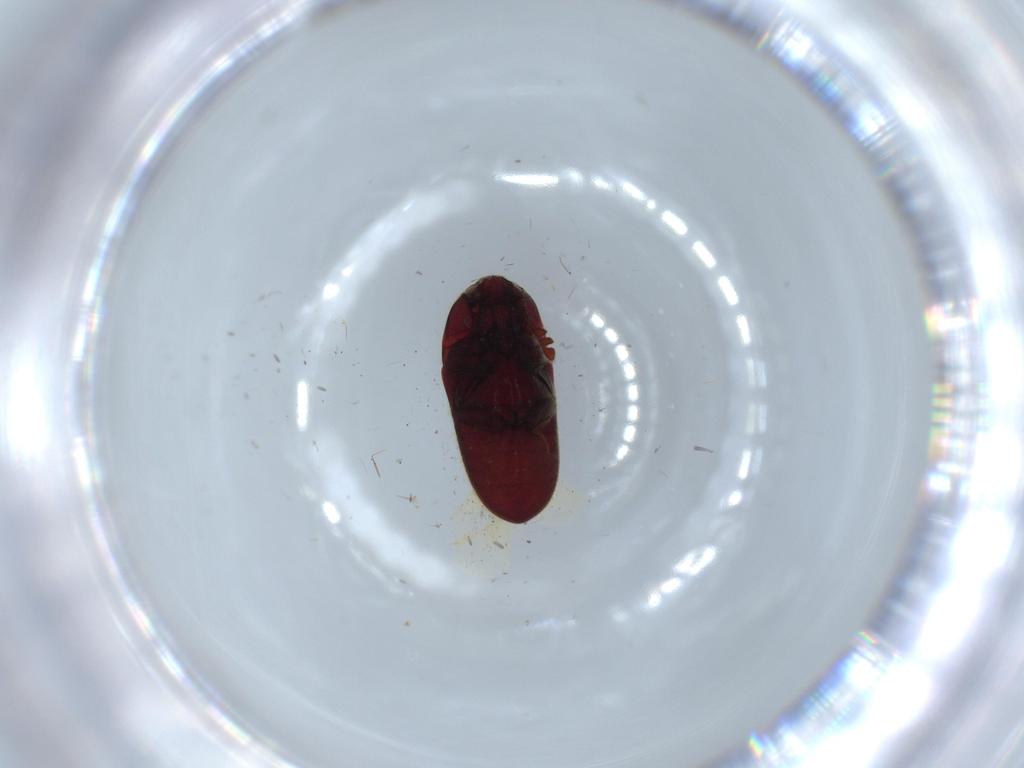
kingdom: Animalia
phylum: Arthropoda
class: Insecta
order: Coleoptera
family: Throscidae
